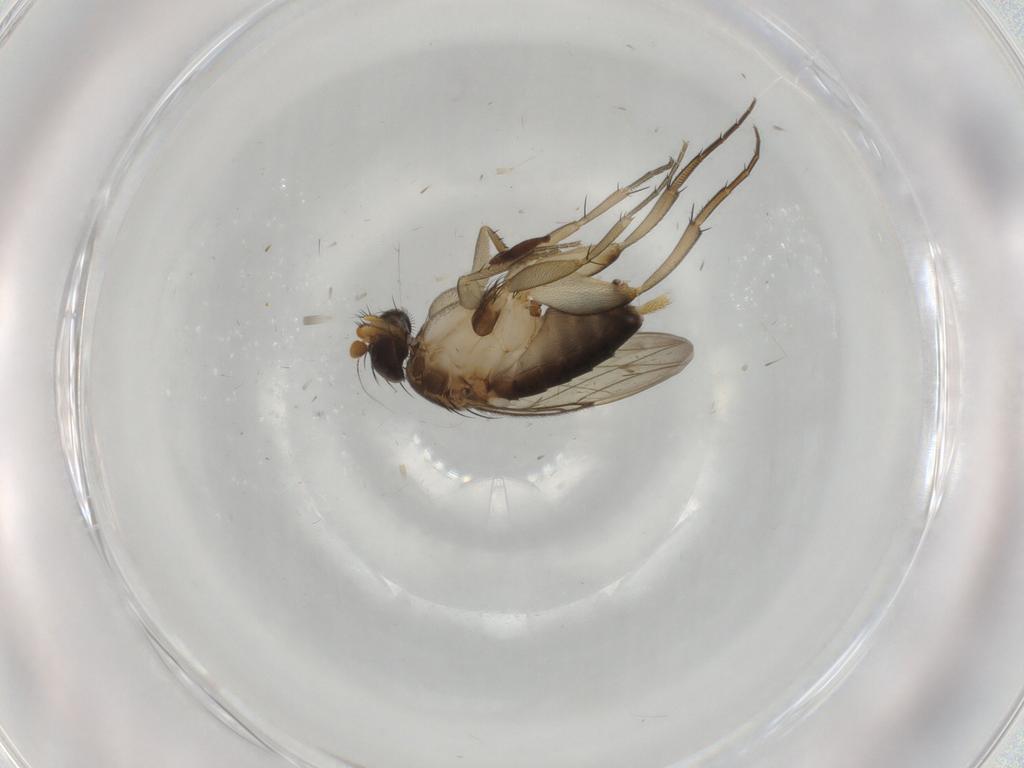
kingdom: Animalia
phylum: Arthropoda
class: Insecta
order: Diptera
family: Phoridae
